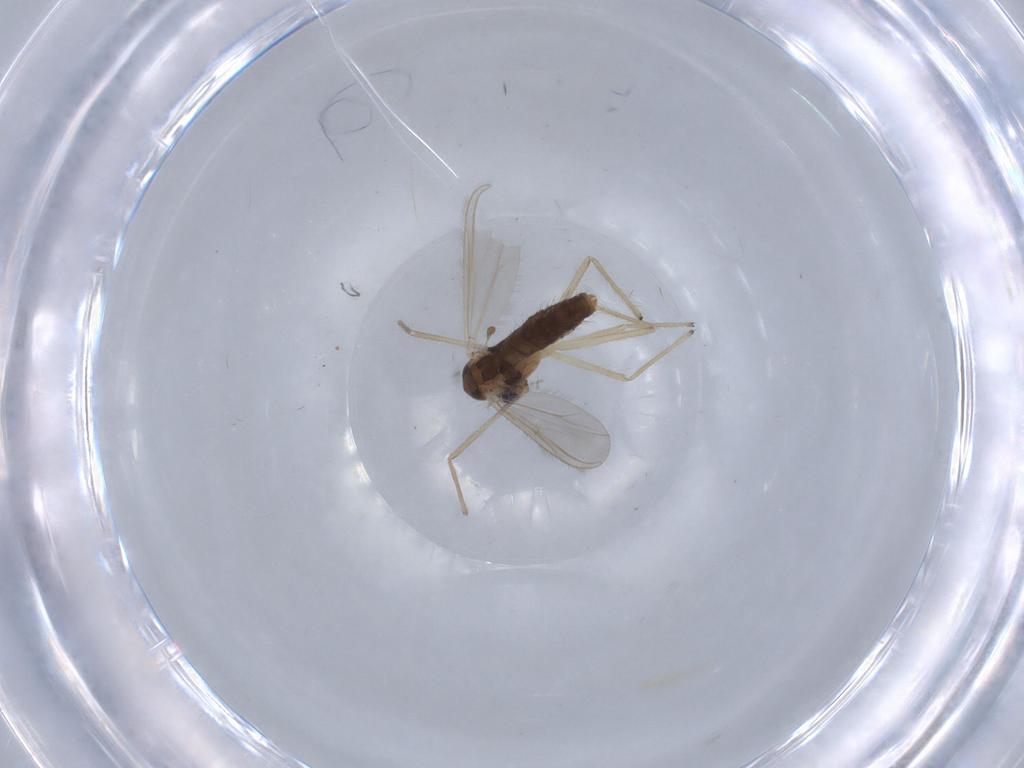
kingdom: Animalia
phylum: Arthropoda
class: Insecta
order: Diptera
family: Chironomidae
